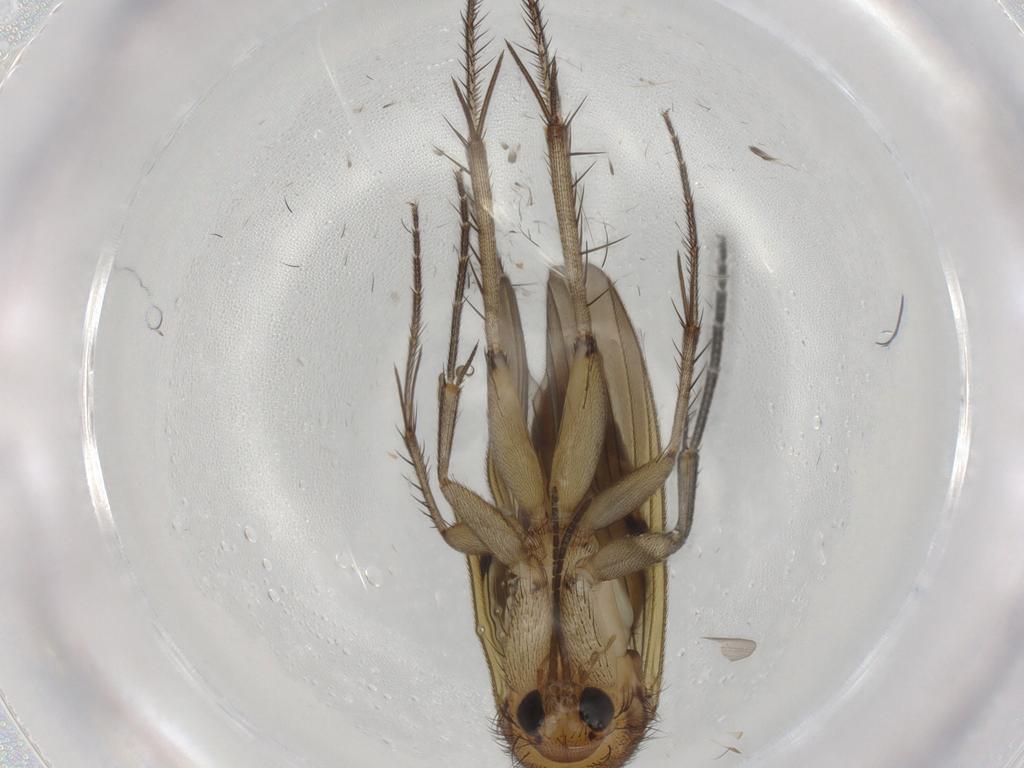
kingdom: Animalia
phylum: Arthropoda
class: Insecta
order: Diptera
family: Mycetophilidae
